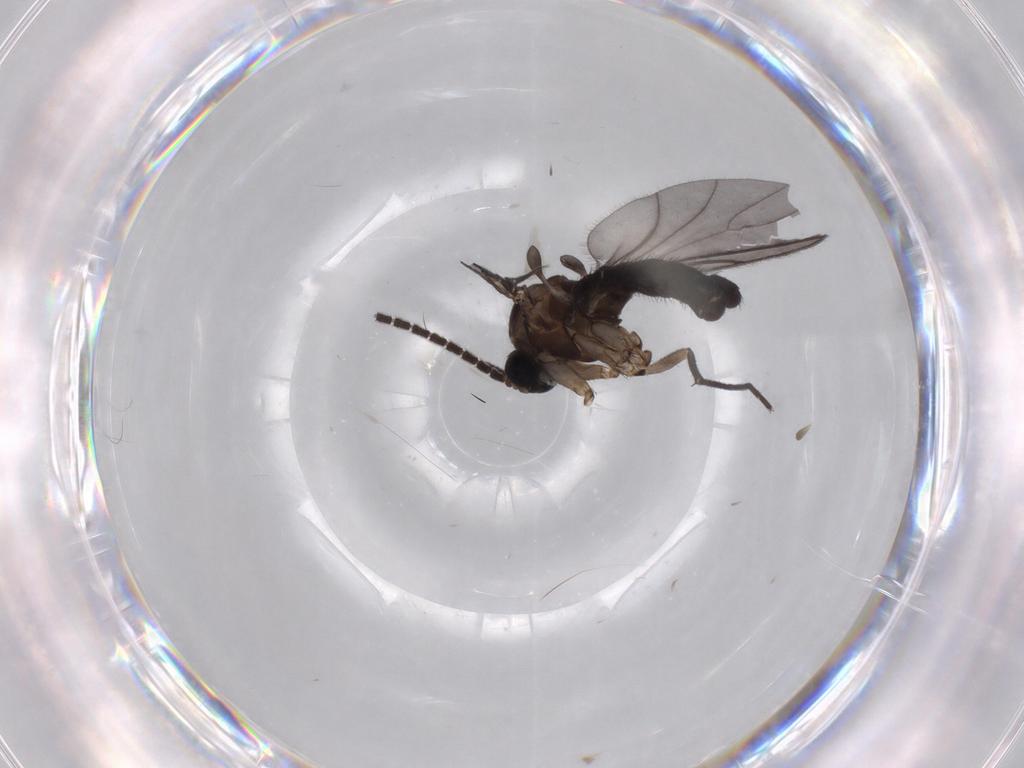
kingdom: Animalia
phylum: Arthropoda
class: Insecta
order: Diptera
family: Sciaridae
